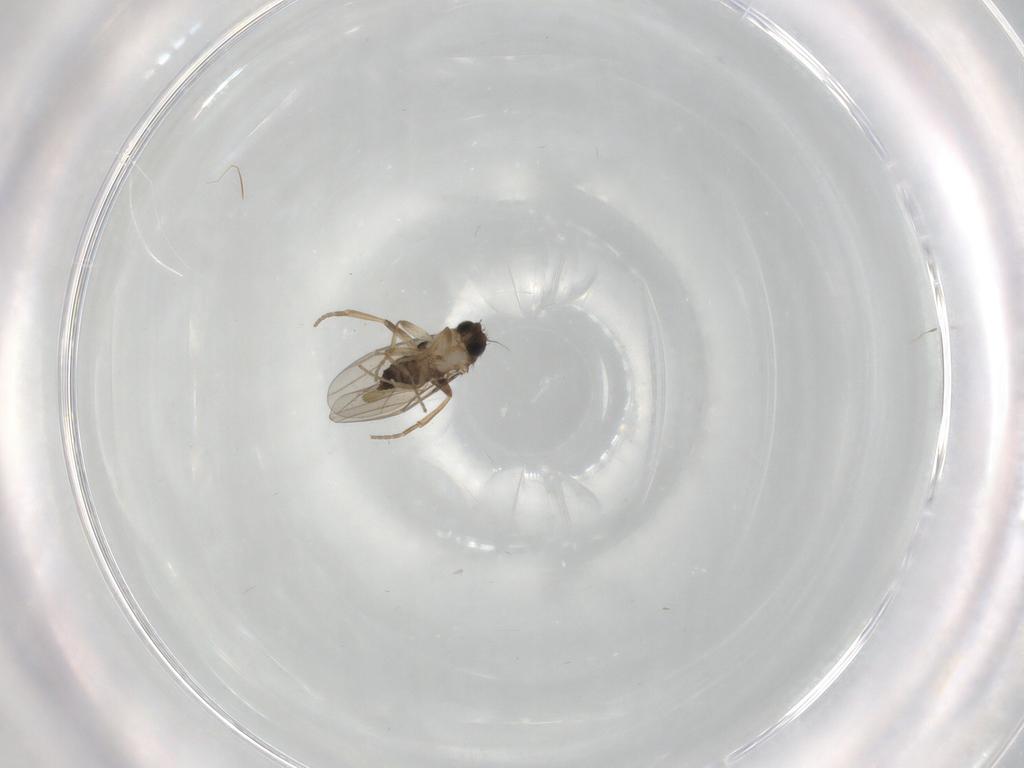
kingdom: Animalia
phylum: Arthropoda
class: Insecta
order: Diptera
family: Phoridae
